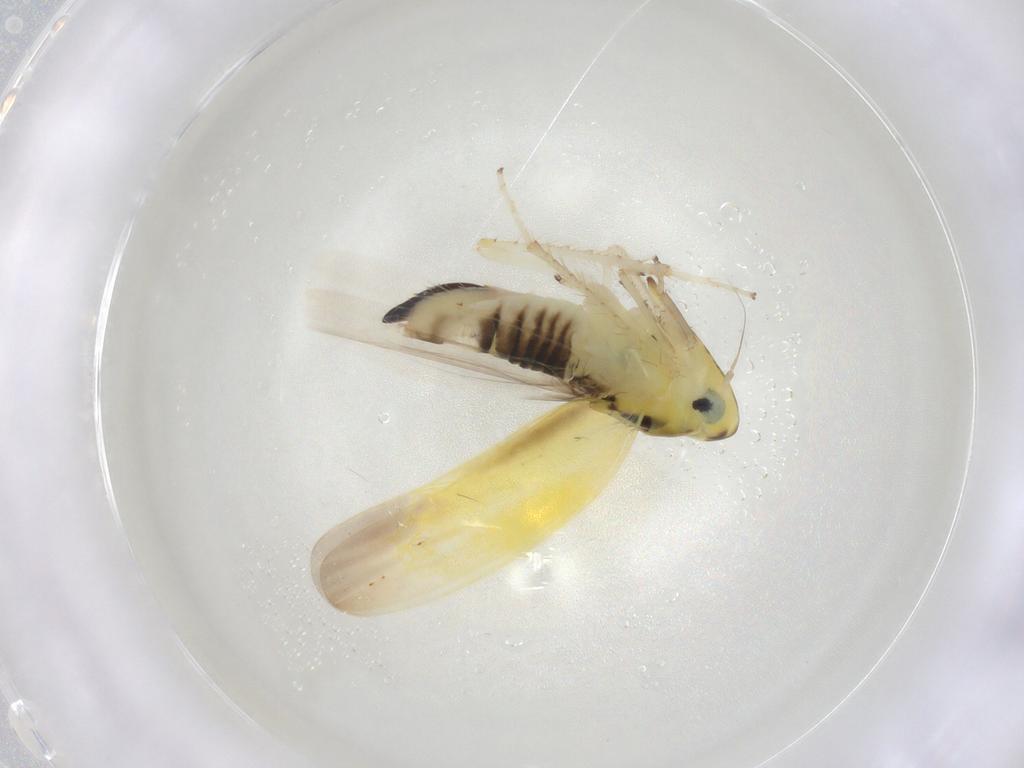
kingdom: Animalia
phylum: Arthropoda
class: Insecta
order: Hemiptera
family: Cicadellidae
